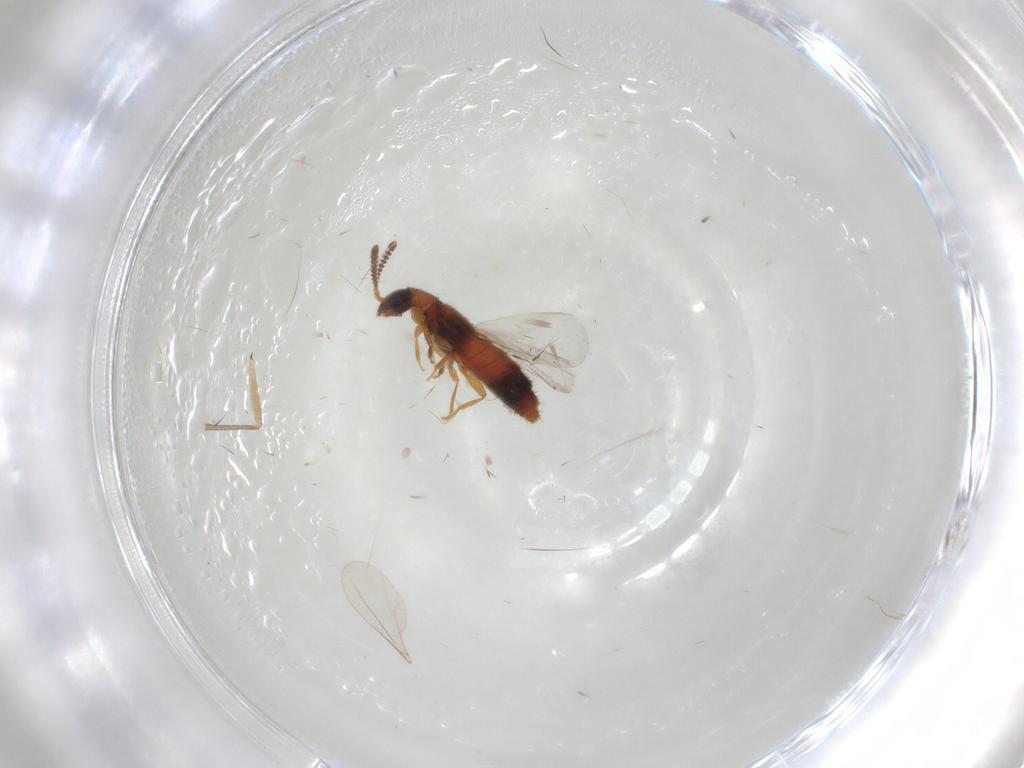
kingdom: Animalia
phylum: Arthropoda
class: Insecta
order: Coleoptera
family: Staphylinidae
